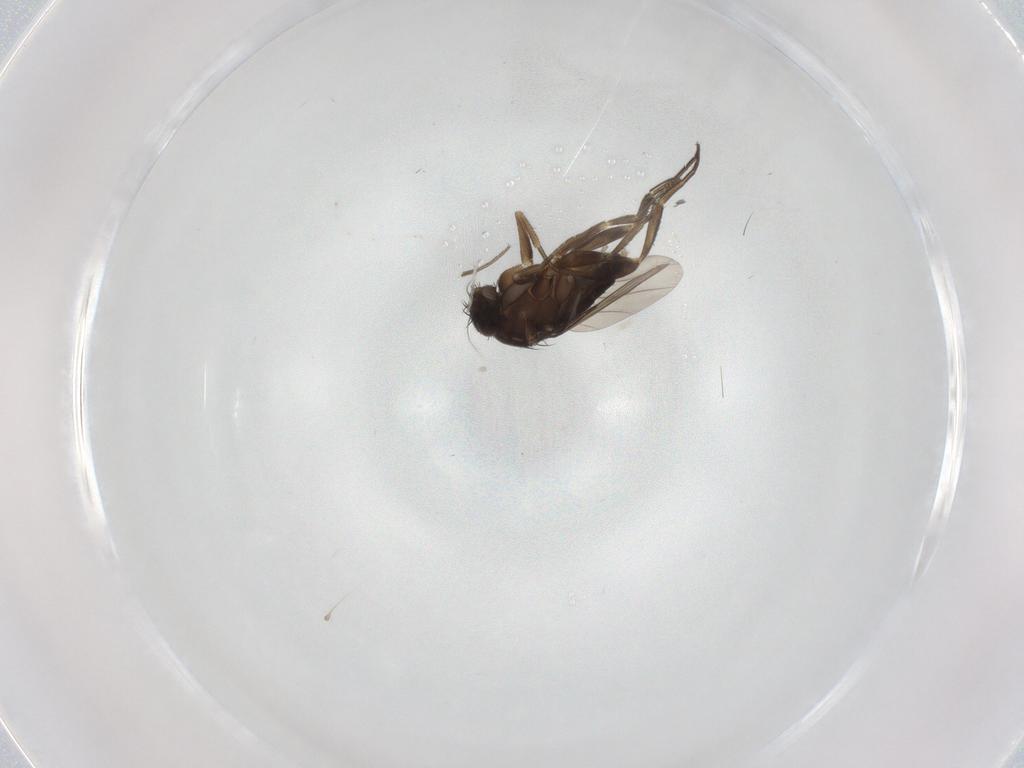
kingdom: Animalia
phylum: Arthropoda
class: Insecta
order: Diptera
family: Phoridae
